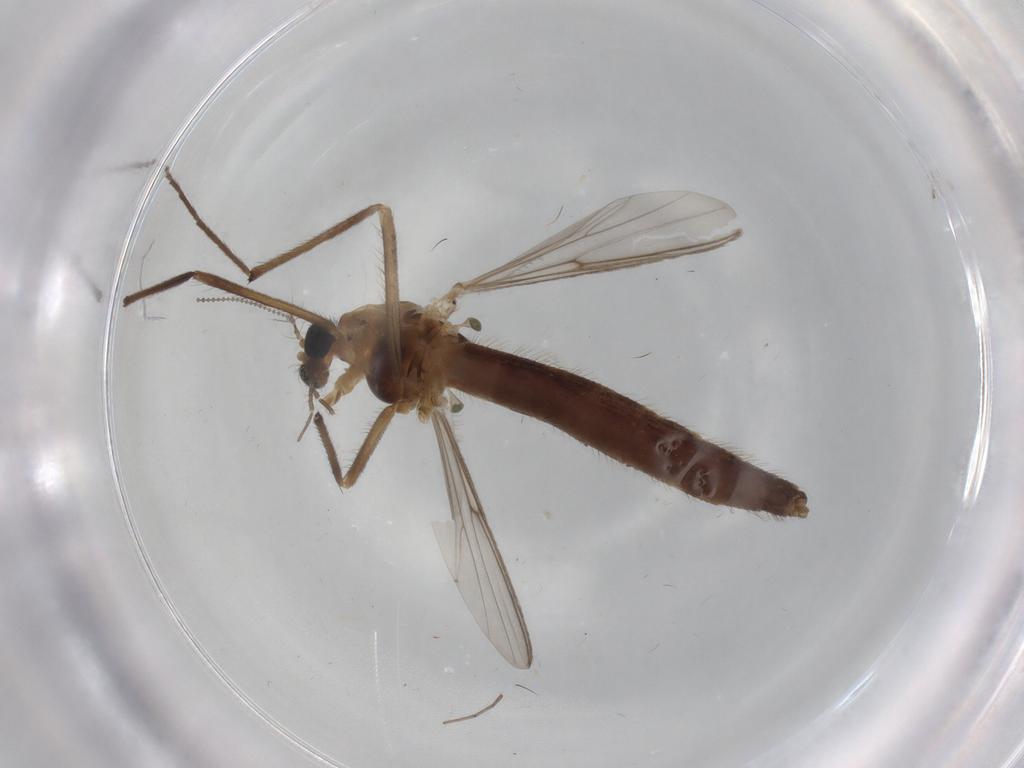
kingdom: Animalia
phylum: Arthropoda
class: Insecta
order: Diptera
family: Chironomidae
